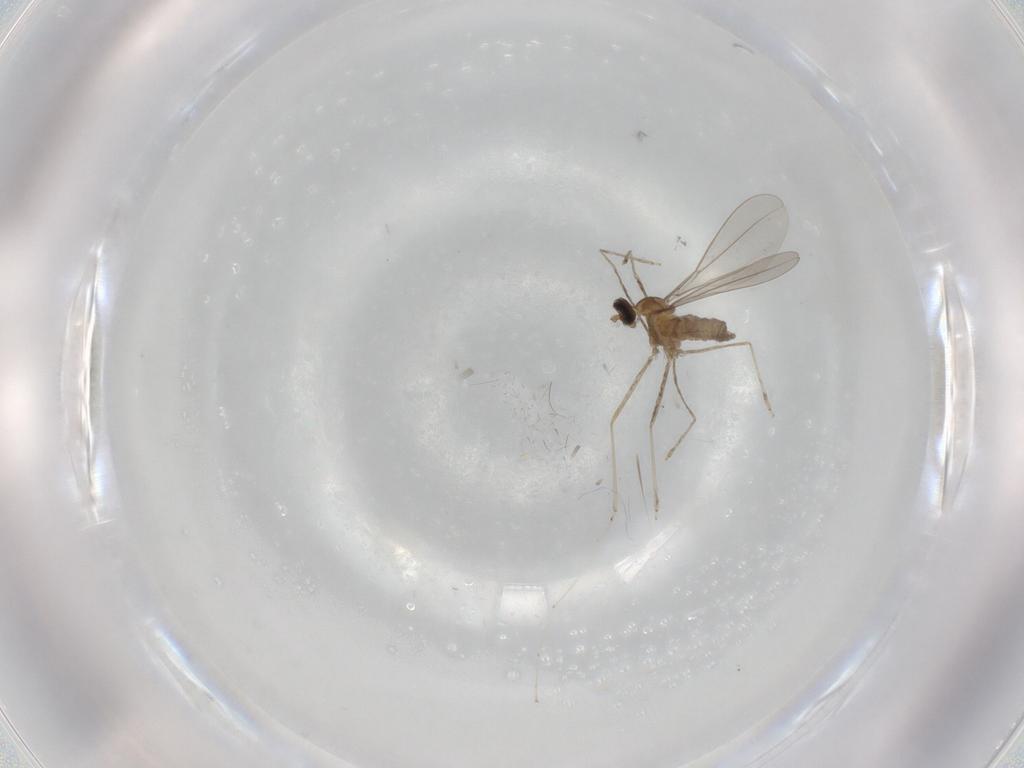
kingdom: Animalia
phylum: Arthropoda
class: Insecta
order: Diptera
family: Cecidomyiidae
